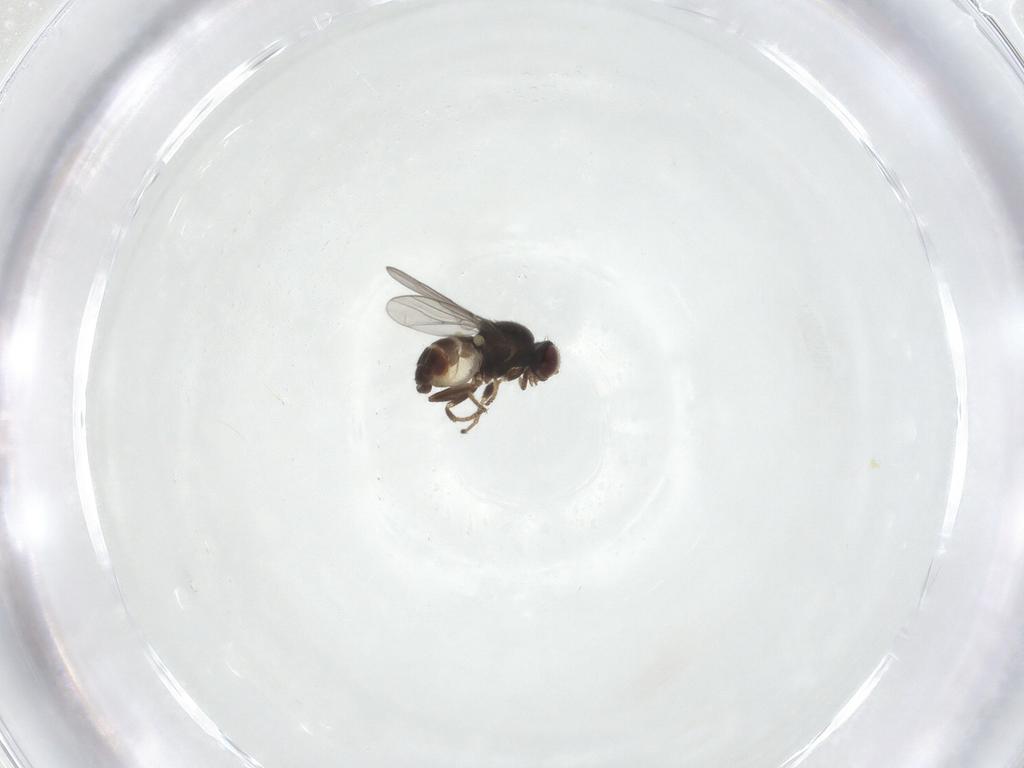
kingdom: Animalia
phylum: Arthropoda
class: Insecta
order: Diptera
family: Chloropidae
